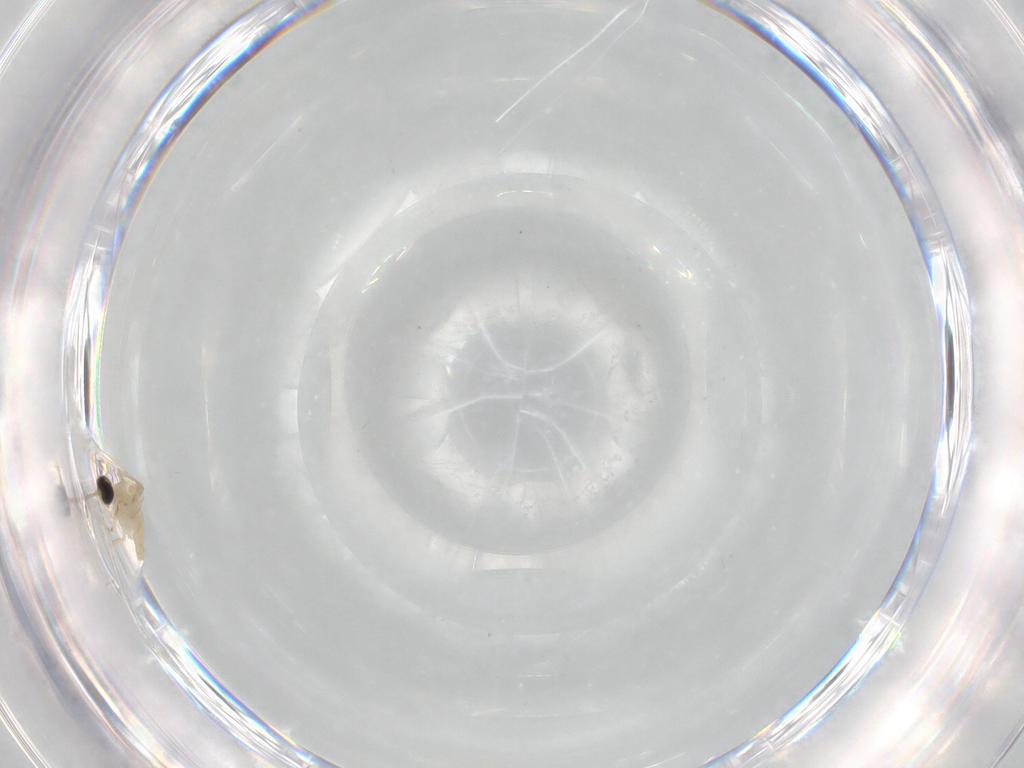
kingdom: Animalia
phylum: Arthropoda
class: Insecta
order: Diptera
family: Cecidomyiidae
